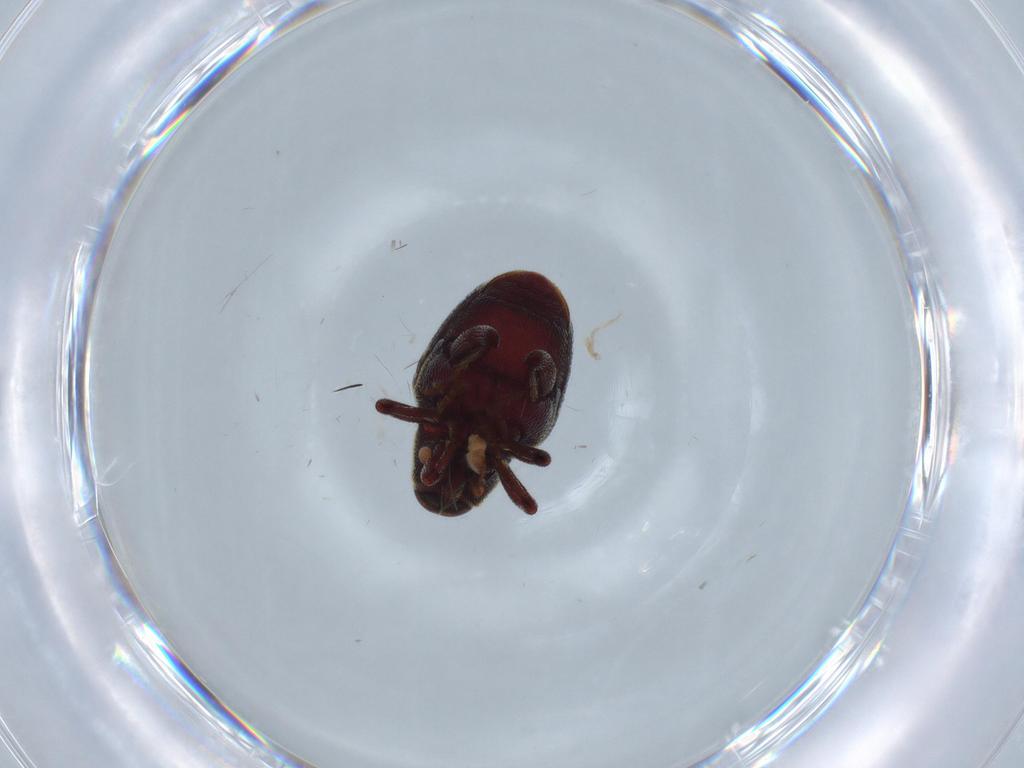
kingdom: Animalia
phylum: Arthropoda
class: Insecta
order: Coleoptera
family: Curculionidae
